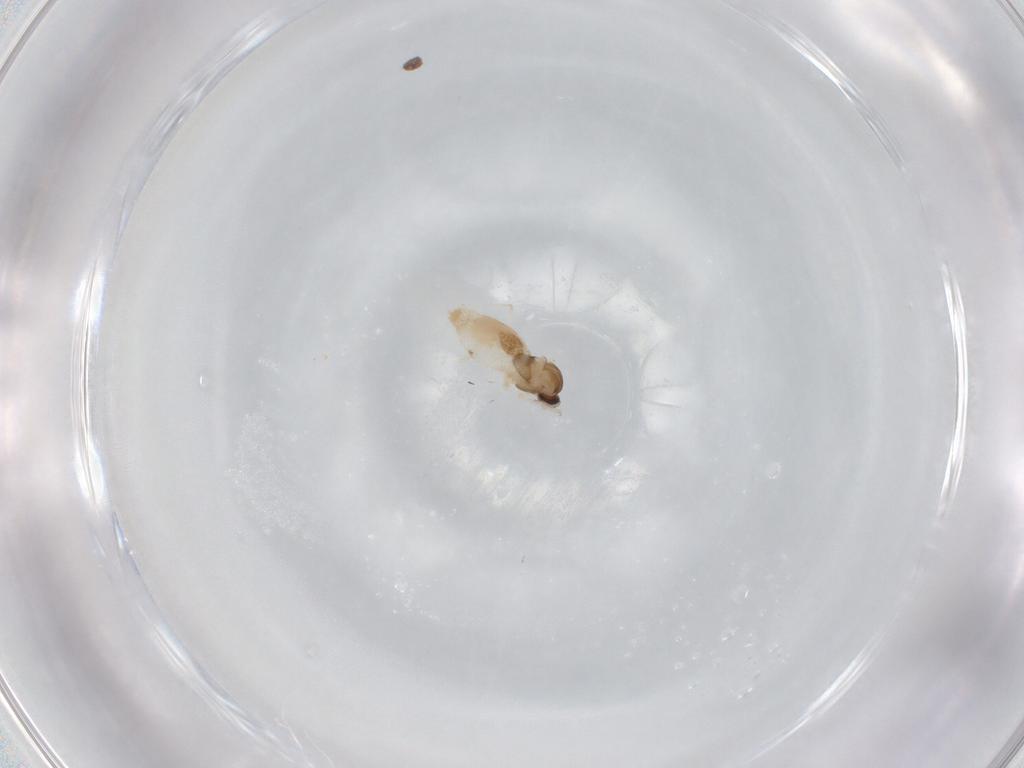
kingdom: Animalia
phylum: Arthropoda
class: Insecta
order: Diptera
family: Cecidomyiidae
